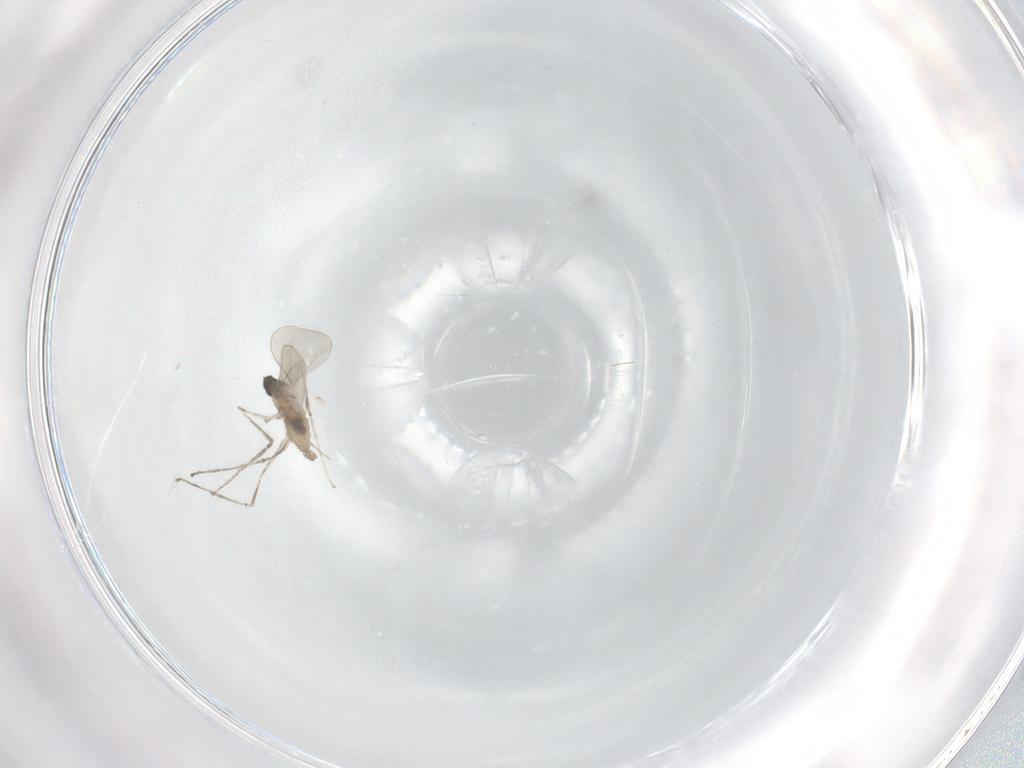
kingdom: Animalia
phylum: Arthropoda
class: Insecta
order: Diptera
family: Cecidomyiidae
